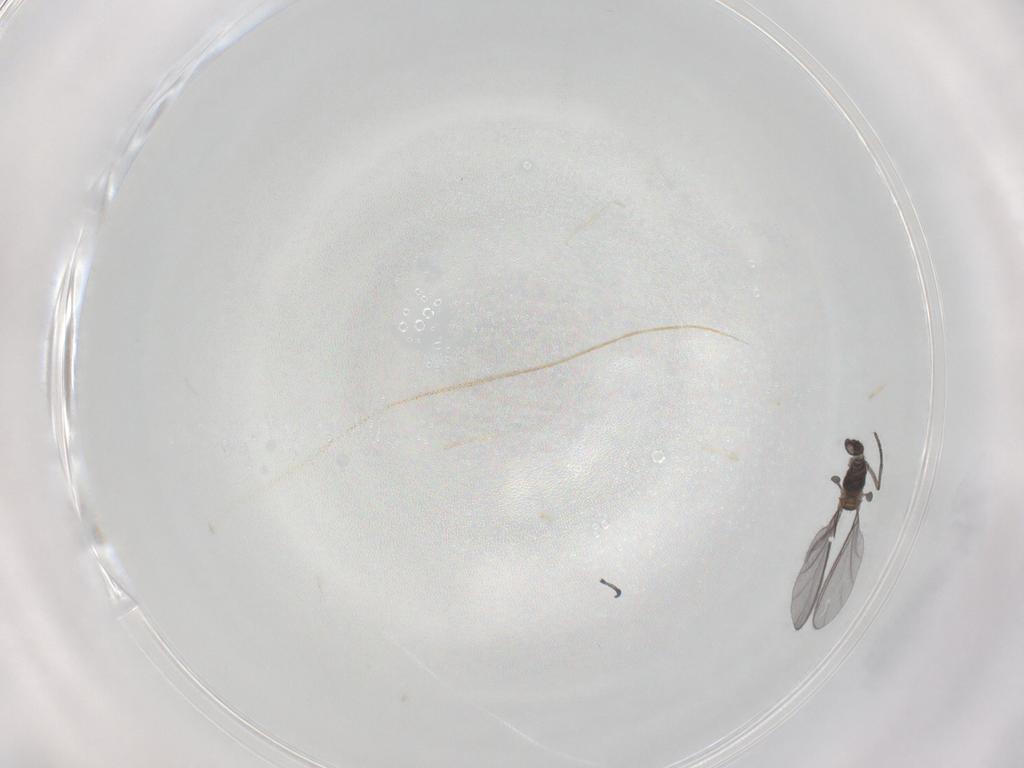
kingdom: Animalia
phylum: Arthropoda
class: Insecta
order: Diptera
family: Sciaridae
